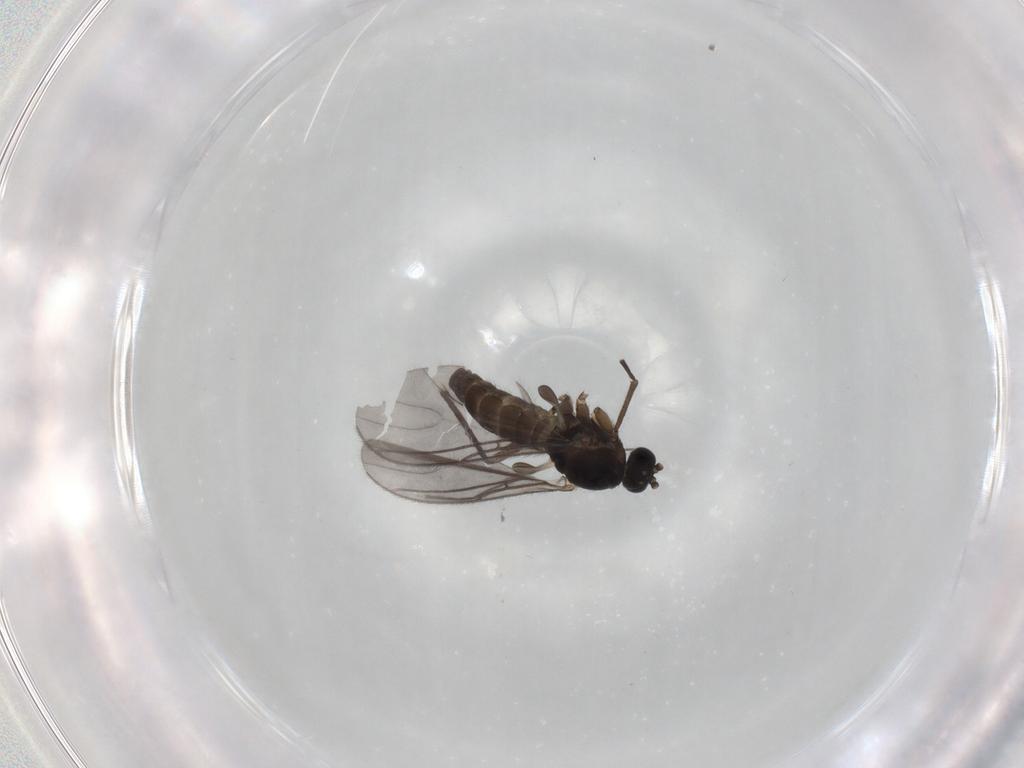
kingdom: Animalia
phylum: Arthropoda
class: Insecta
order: Diptera
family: Sciaridae
